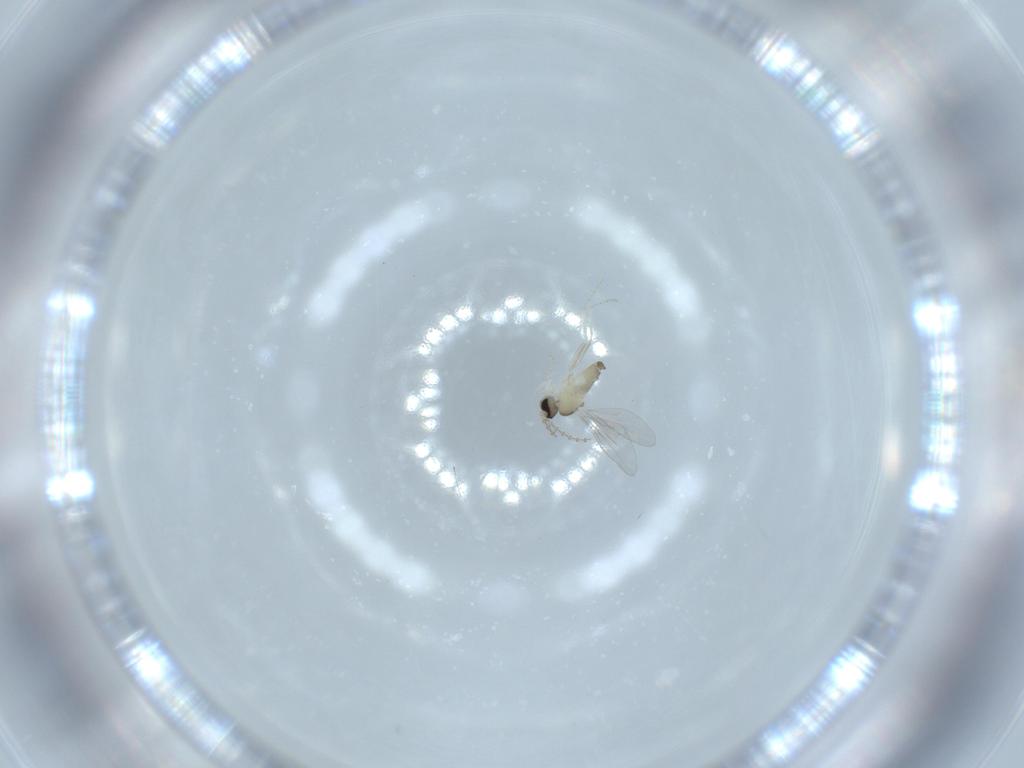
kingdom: Animalia
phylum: Arthropoda
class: Insecta
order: Diptera
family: Cecidomyiidae
